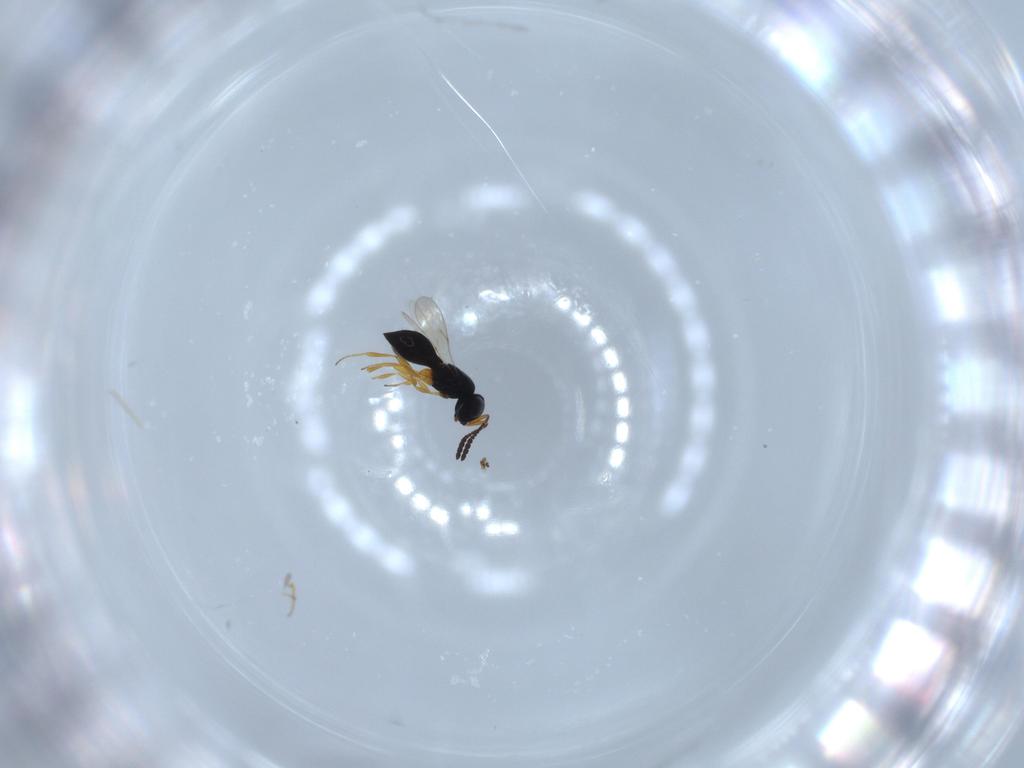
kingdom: Animalia
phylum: Arthropoda
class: Insecta
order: Hymenoptera
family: Scelionidae
